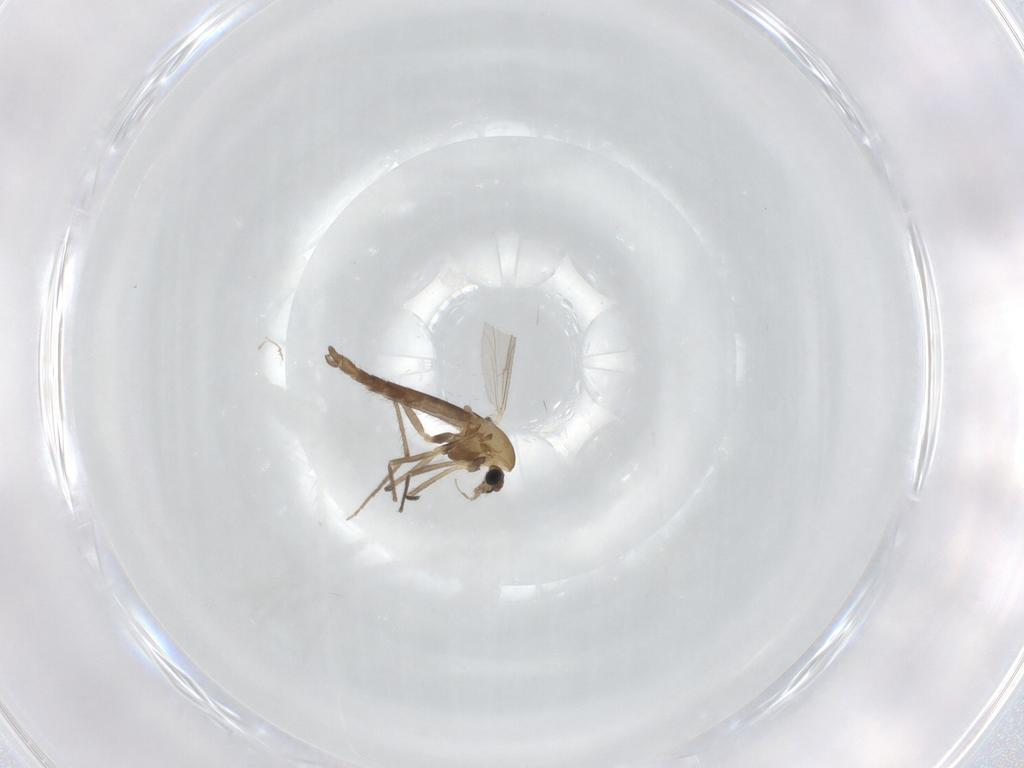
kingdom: Animalia
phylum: Arthropoda
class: Insecta
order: Diptera
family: Chironomidae
